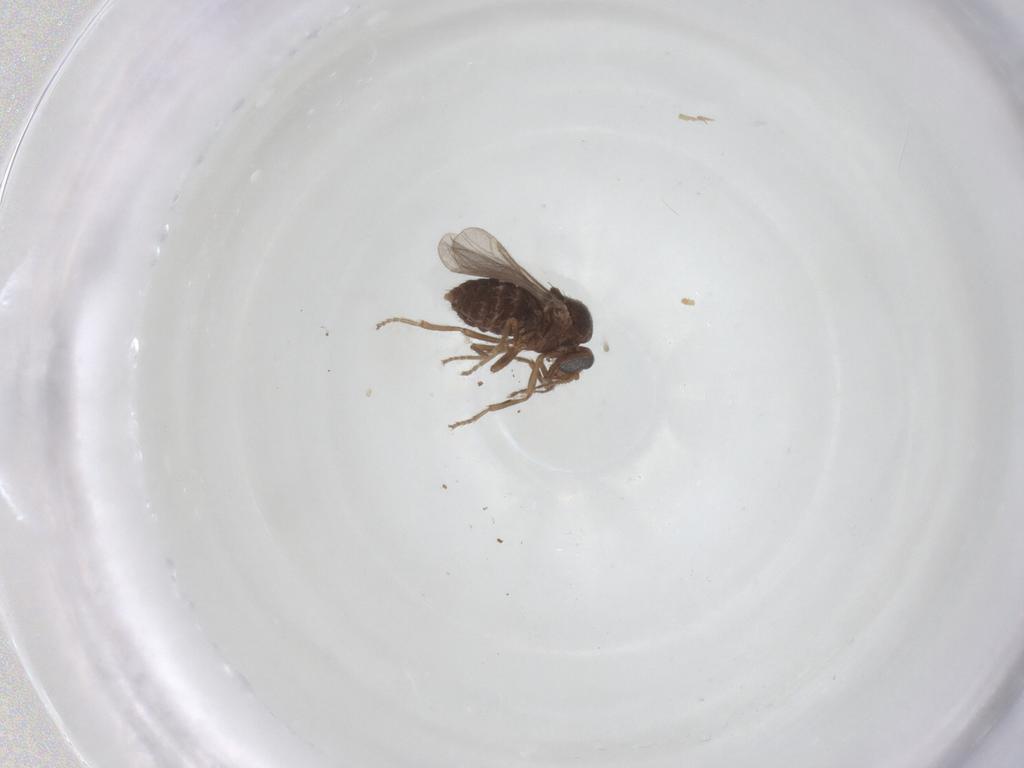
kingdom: Animalia
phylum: Arthropoda
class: Insecta
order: Diptera
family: Ceratopogonidae
